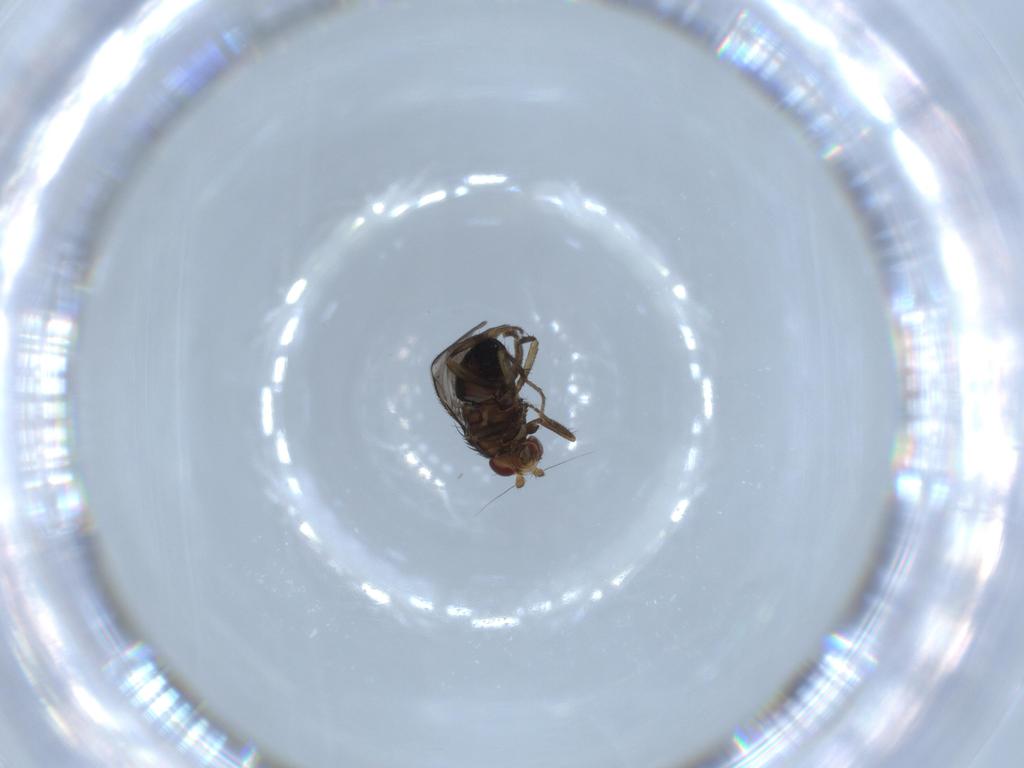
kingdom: Animalia
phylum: Arthropoda
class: Insecta
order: Diptera
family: Sphaeroceridae
